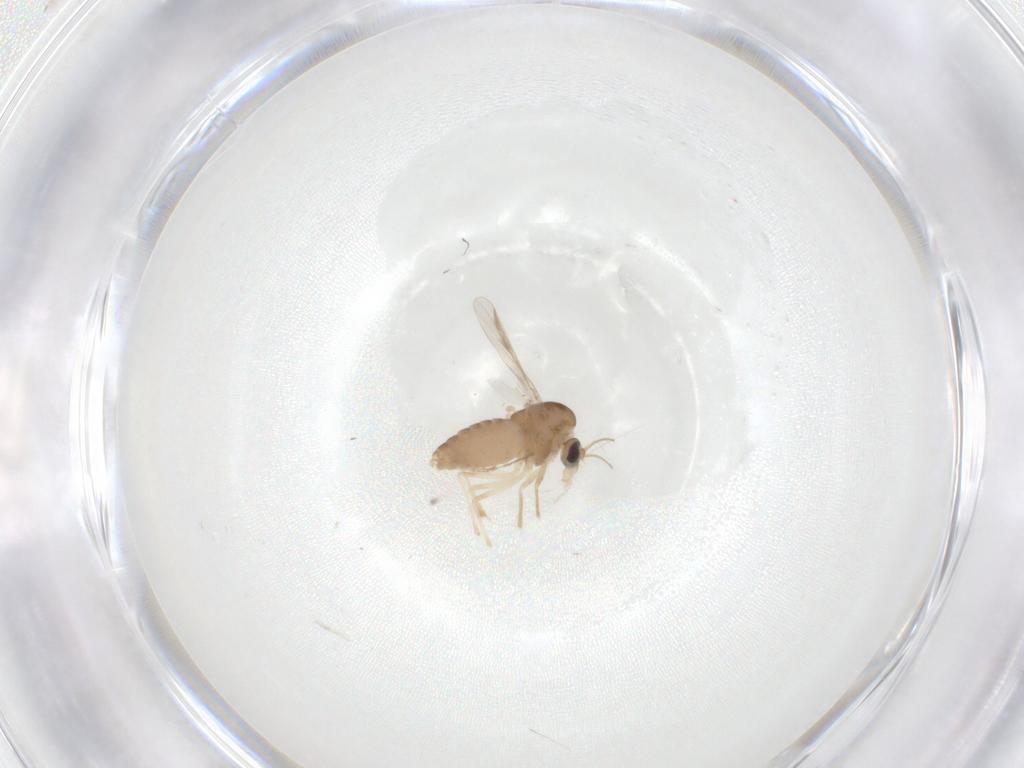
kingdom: Animalia
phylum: Arthropoda
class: Insecta
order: Diptera
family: Chironomidae
